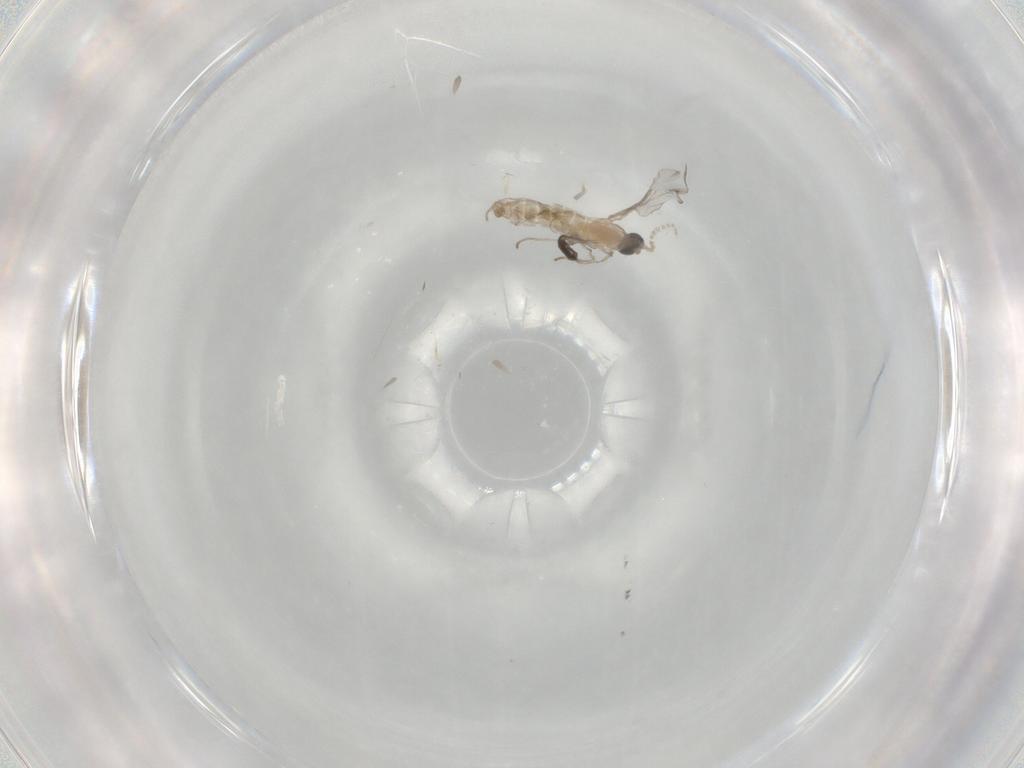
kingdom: Animalia
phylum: Arthropoda
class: Insecta
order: Diptera
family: Cecidomyiidae
